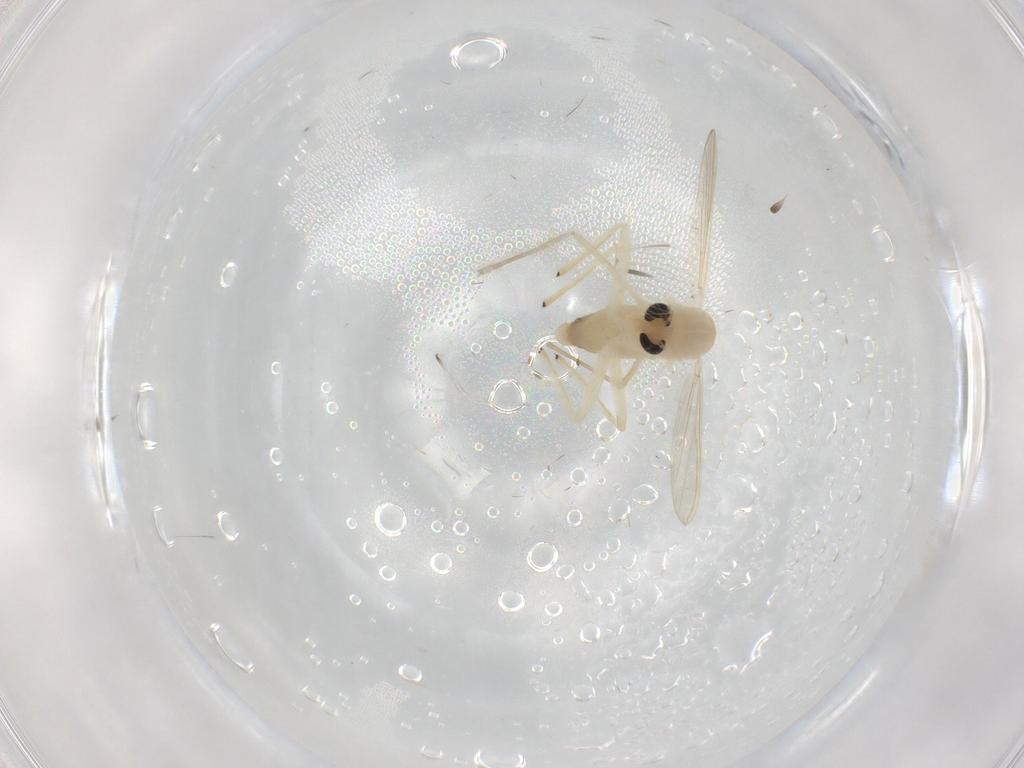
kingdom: Animalia
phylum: Arthropoda
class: Insecta
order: Diptera
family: Chironomidae
